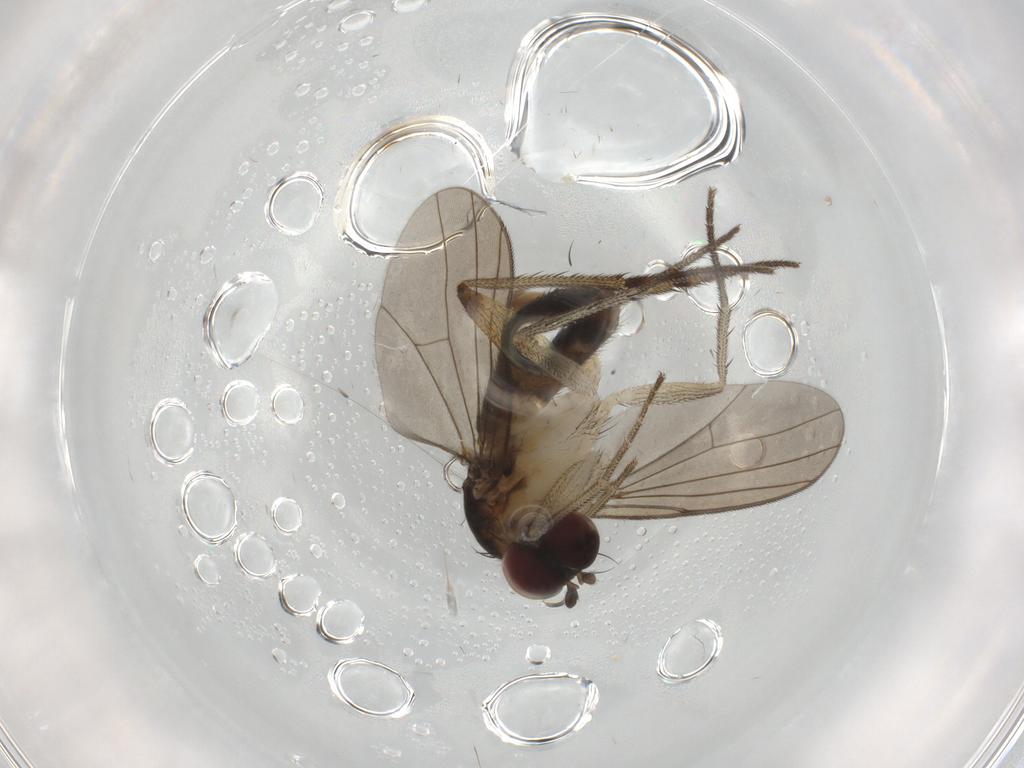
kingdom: Animalia
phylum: Arthropoda
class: Insecta
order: Diptera
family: Dolichopodidae
